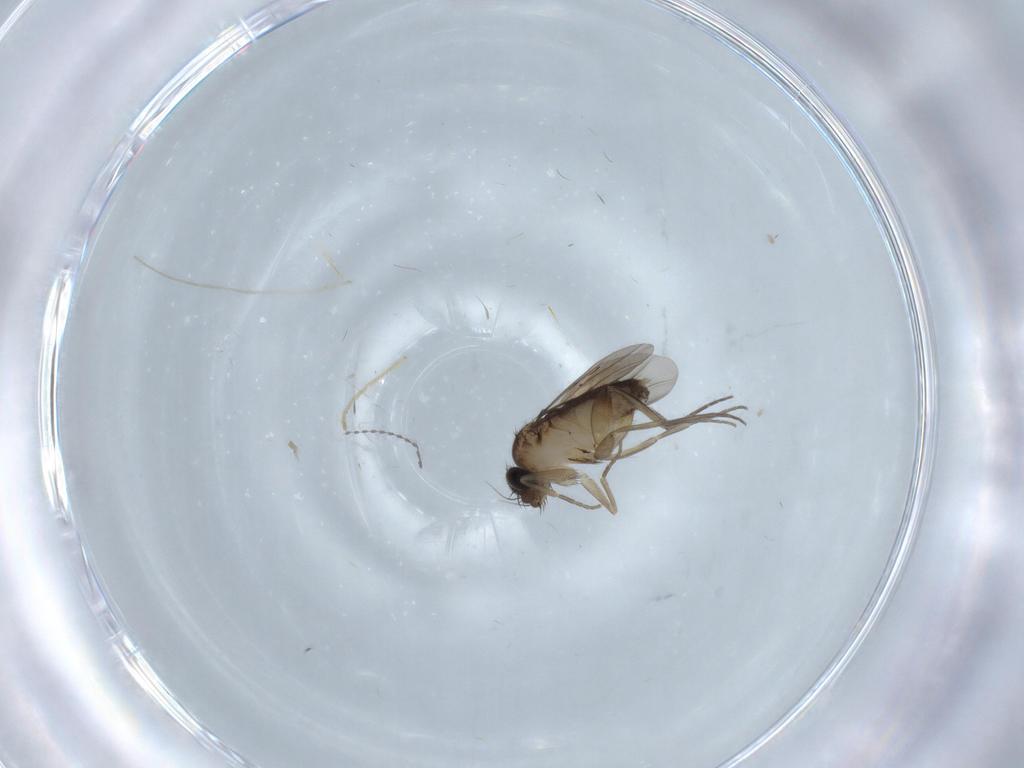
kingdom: Animalia
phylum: Arthropoda
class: Insecta
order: Diptera
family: Phoridae
